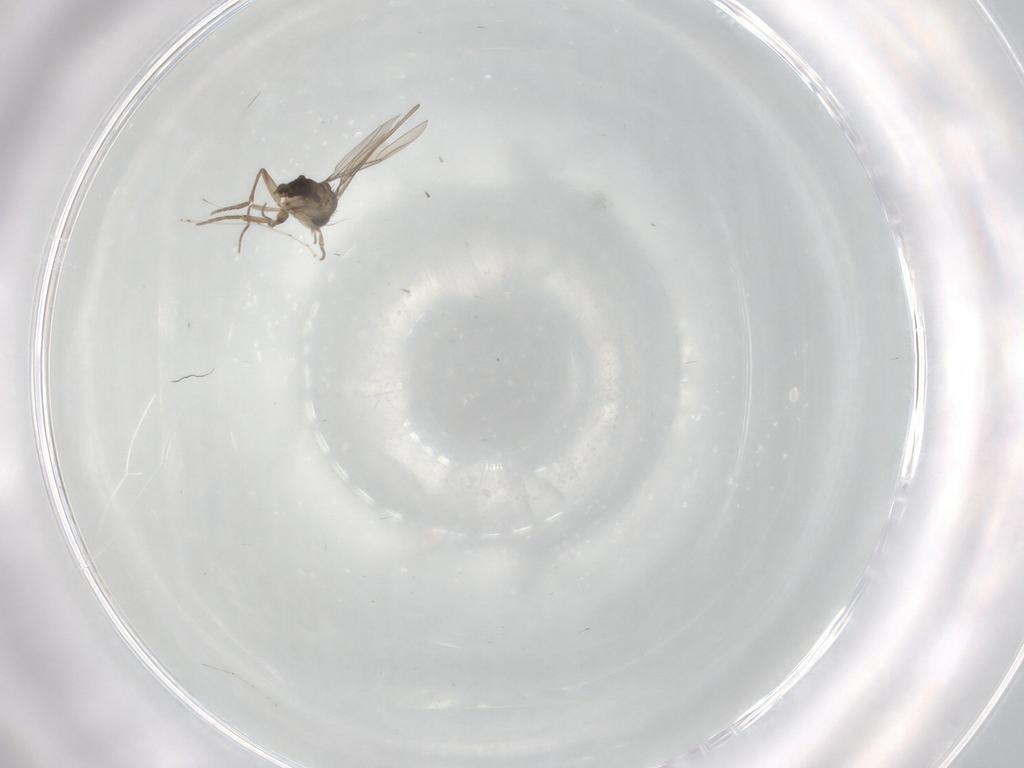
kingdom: Animalia
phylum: Arthropoda
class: Insecta
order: Diptera
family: Phoridae
